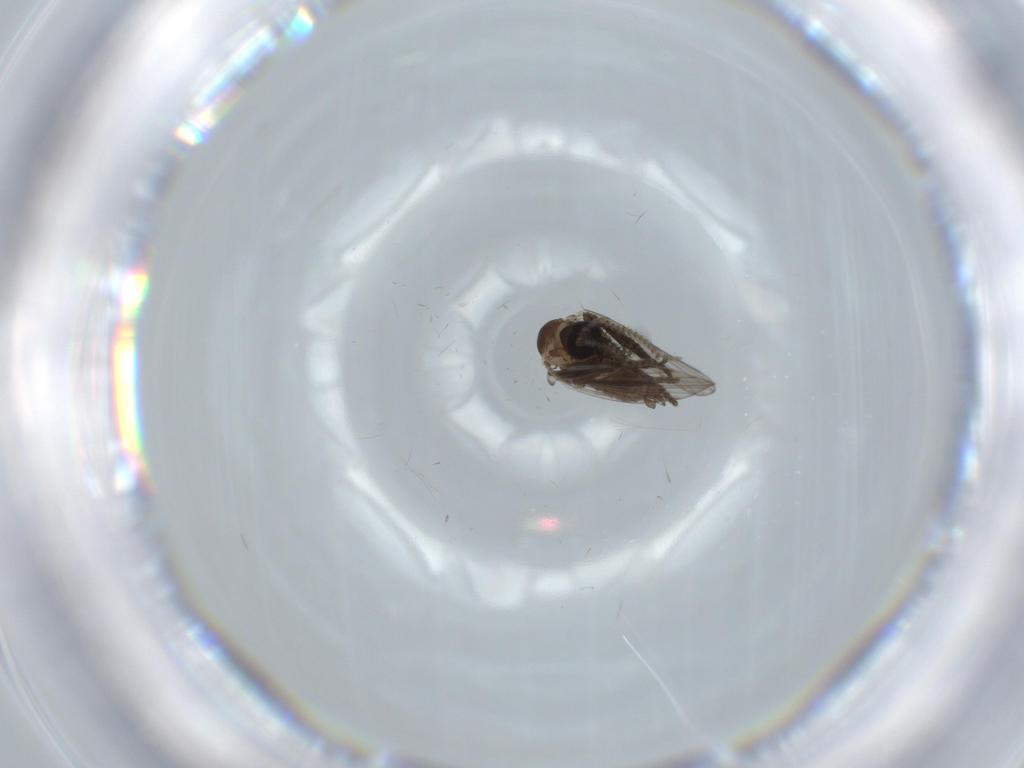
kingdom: Animalia
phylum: Arthropoda
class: Insecta
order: Diptera
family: Psychodidae
